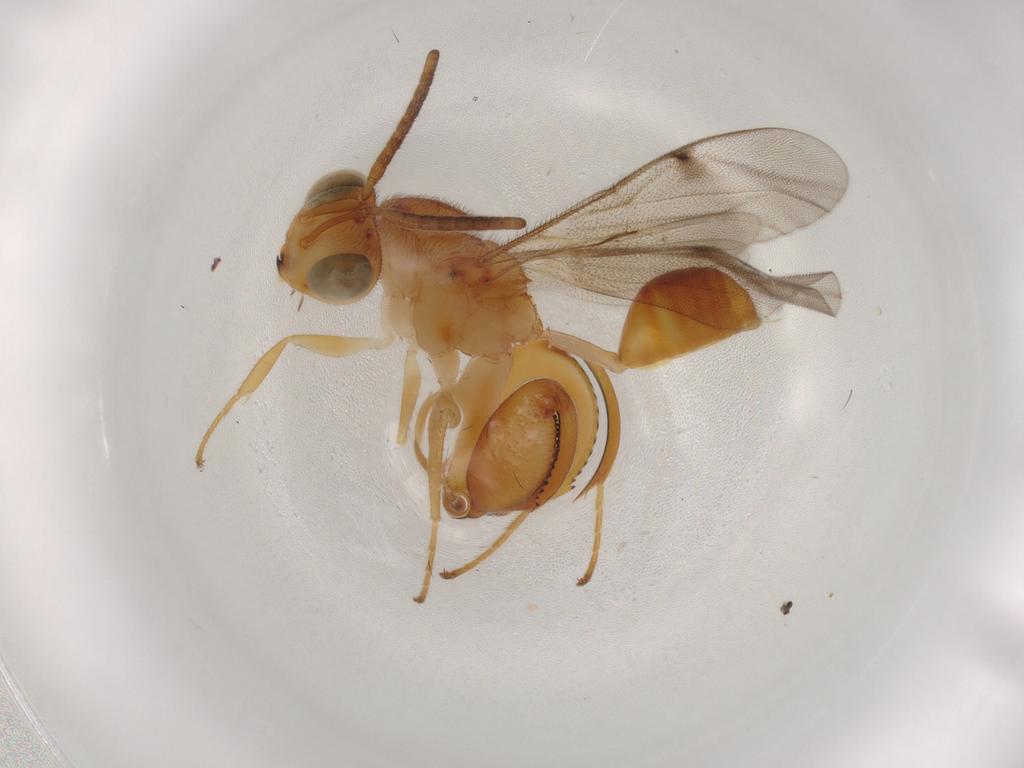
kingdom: Animalia
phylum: Arthropoda
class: Insecta
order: Hymenoptera
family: Chalcididae
